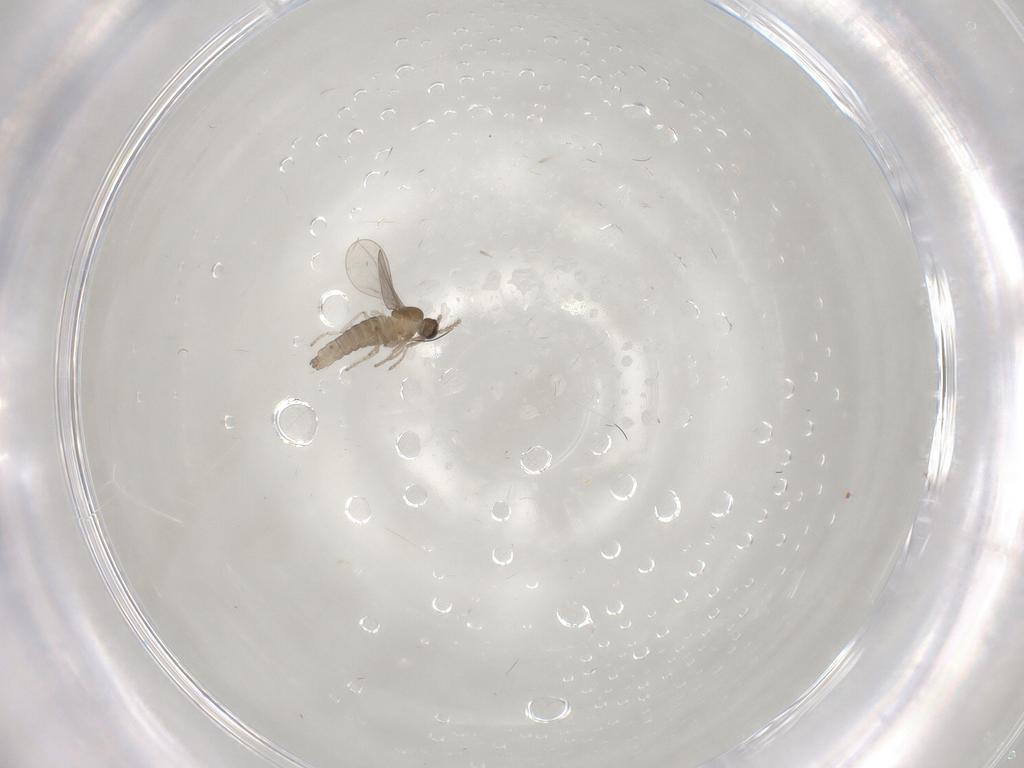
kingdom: Animalia
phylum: Arthropoda
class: Insecta
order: Diptera
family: Cecidomyiidae
